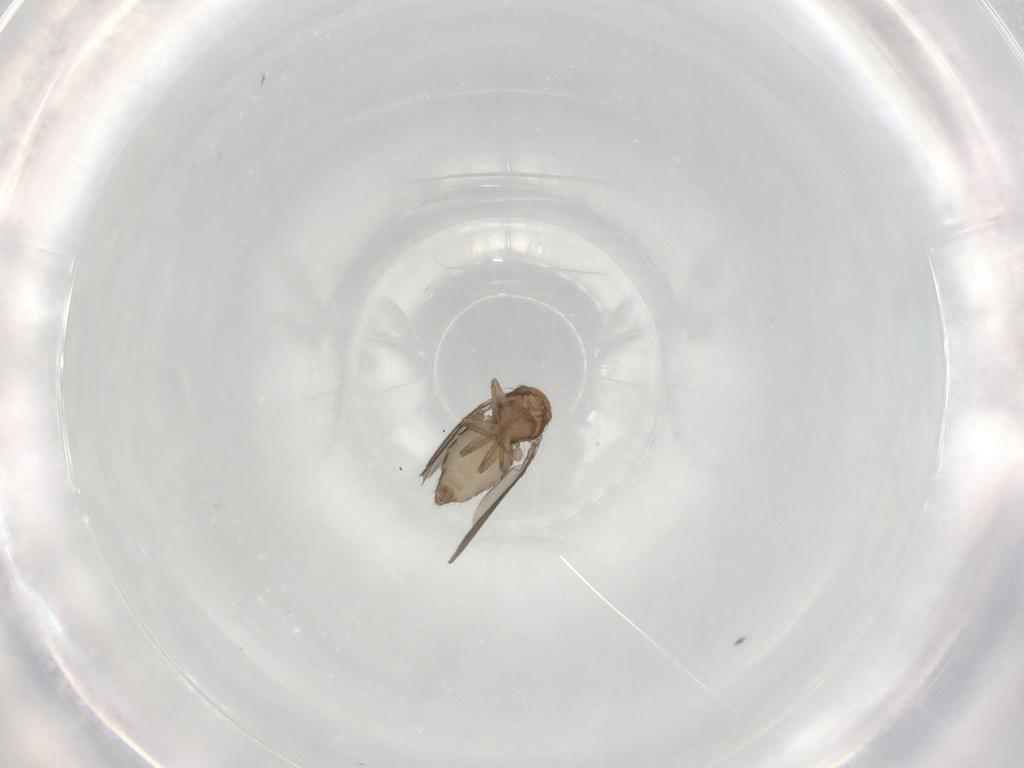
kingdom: Animalia
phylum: Arthropoda
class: Insecta
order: Diptera
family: Drosophilidae
